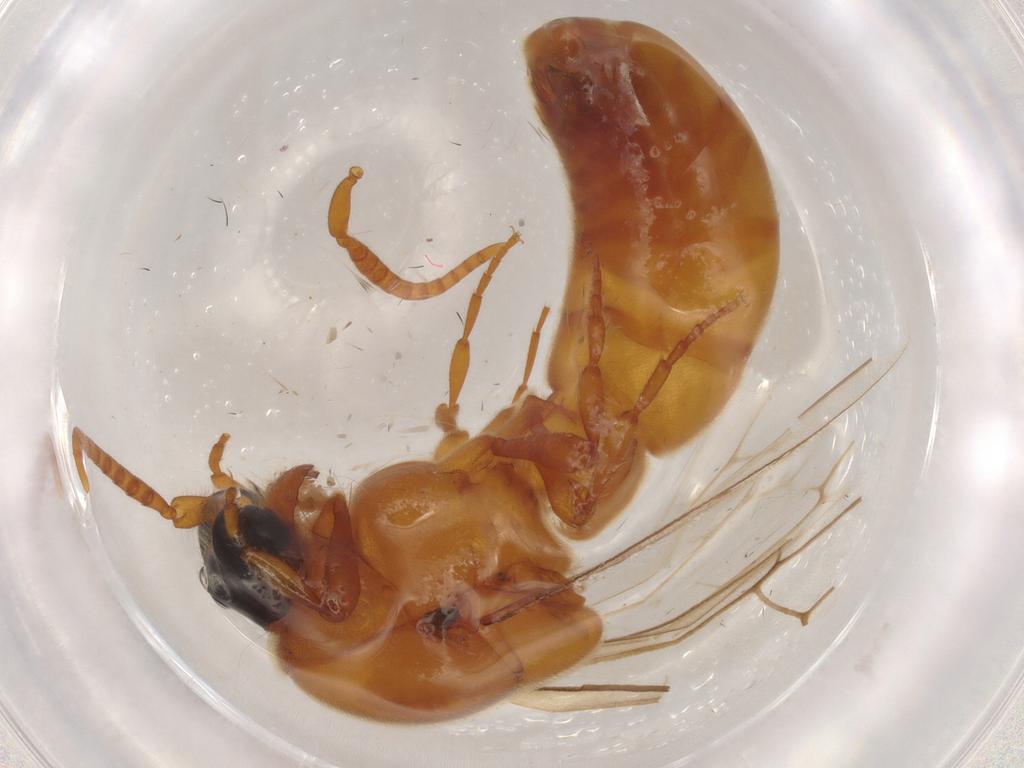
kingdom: Animalia
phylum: Arthropoda
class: Insecta
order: Hymenoptera
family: Formicidae
